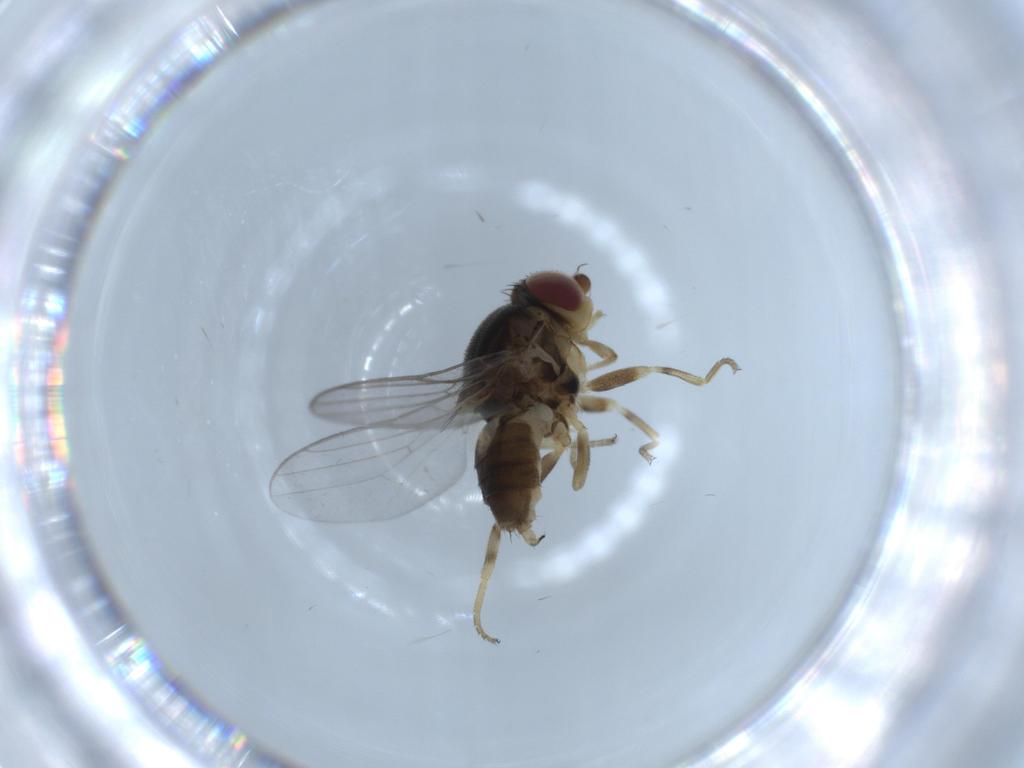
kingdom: Animalia
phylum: Arthropoda
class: Insecta
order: Diptera
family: Chloropidae
